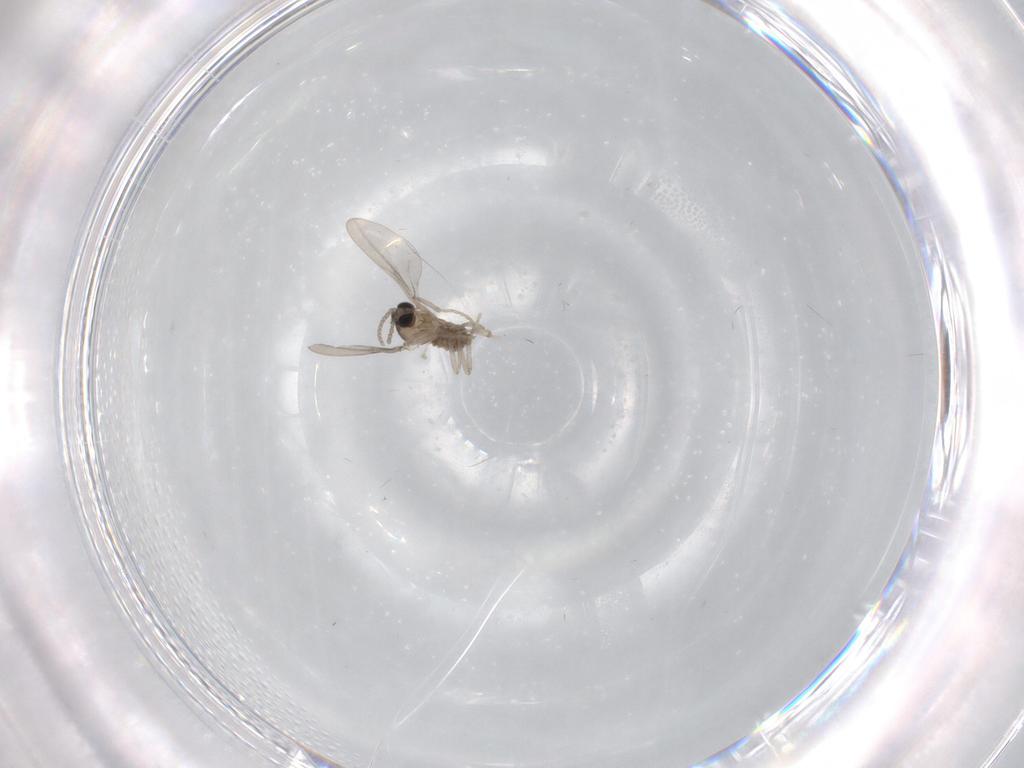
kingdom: Animalia
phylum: Arthropoda
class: Insecta
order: Diptera
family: Cecidomyiidae
